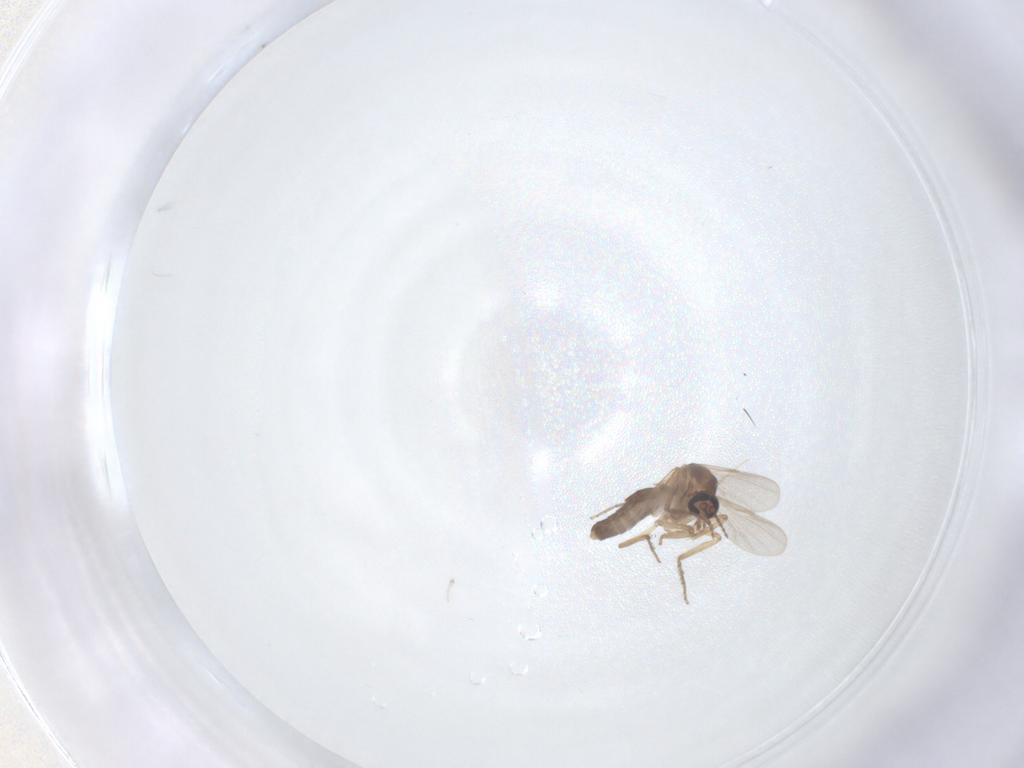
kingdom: Animalia
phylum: Arthropoda
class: Insecta
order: Diptera
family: Ceratopogonidae
